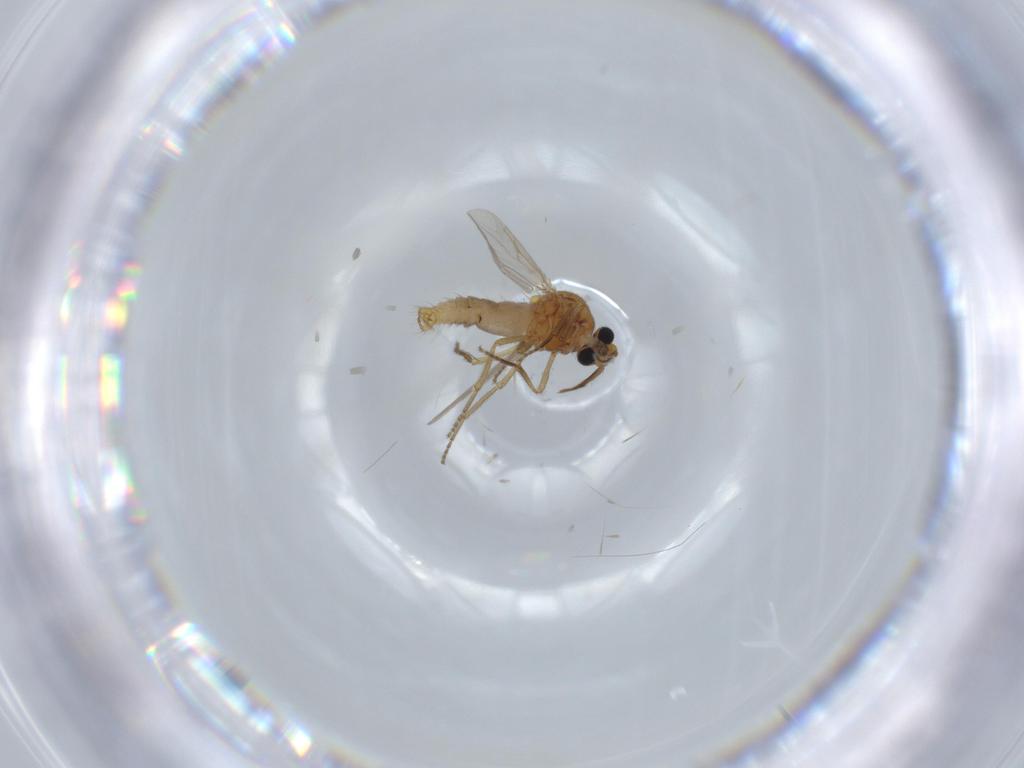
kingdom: Animalia
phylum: Arthropoda
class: Insecta
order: Diptera
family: Ceratopogonidae
